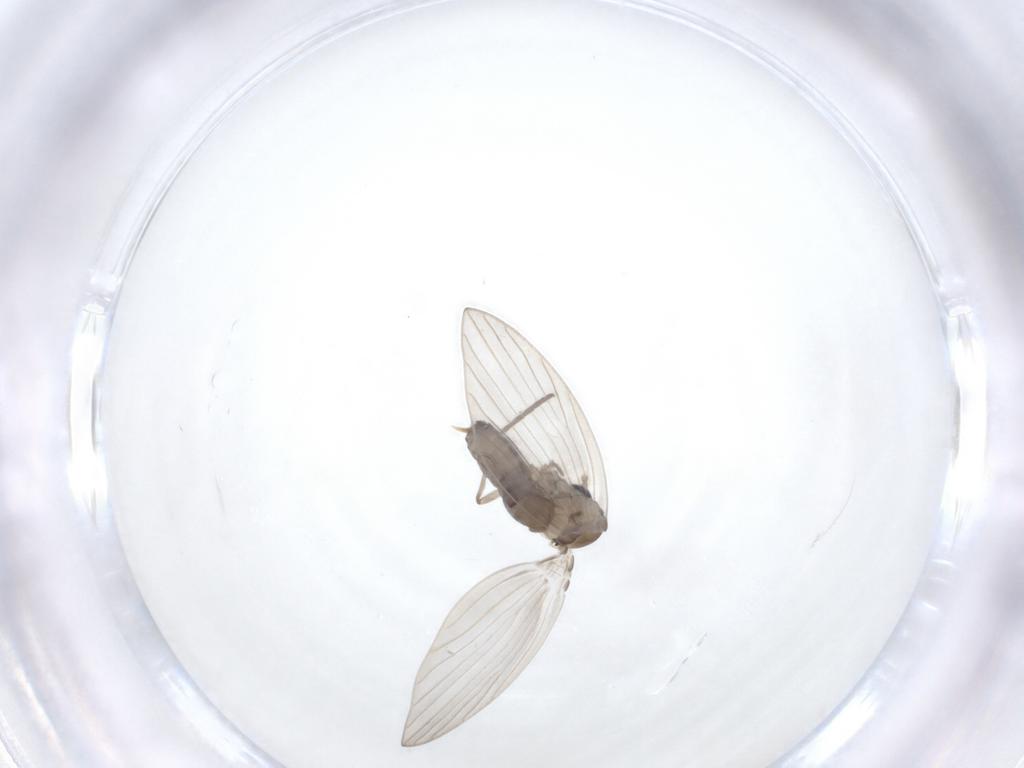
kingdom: Animalia
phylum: Arthropoda
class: Insecta
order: Diptera
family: Psychodidae
